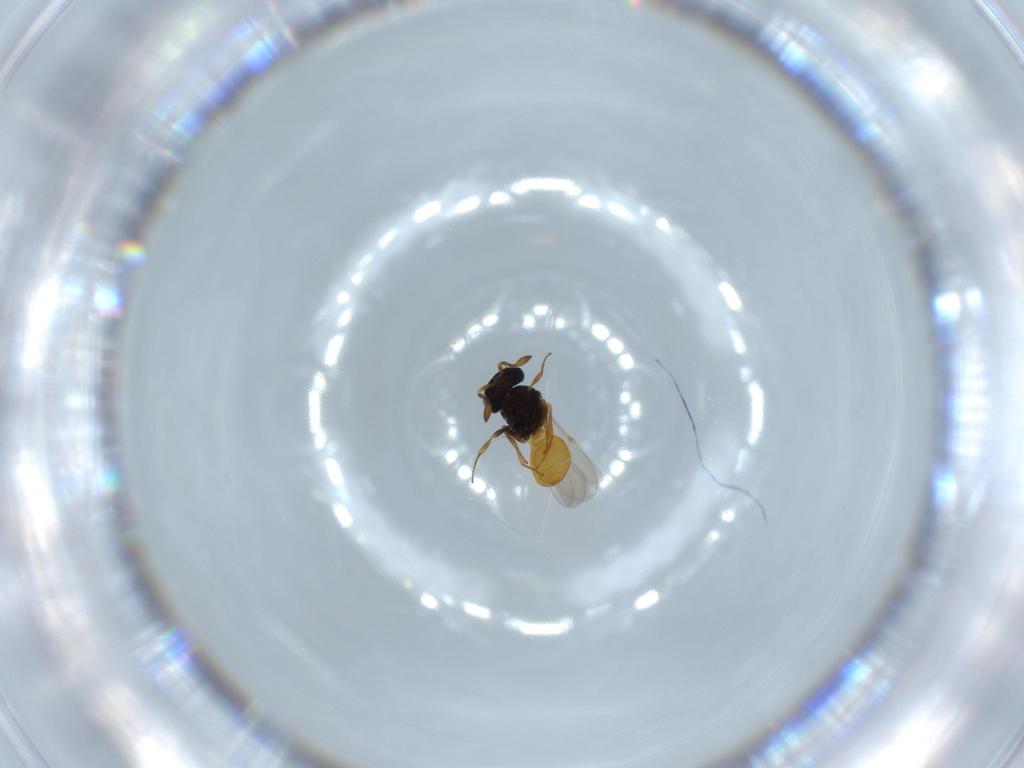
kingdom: Animalia
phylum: Arthropoda
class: Insecta
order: Hymenoptera
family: Scelionidae
